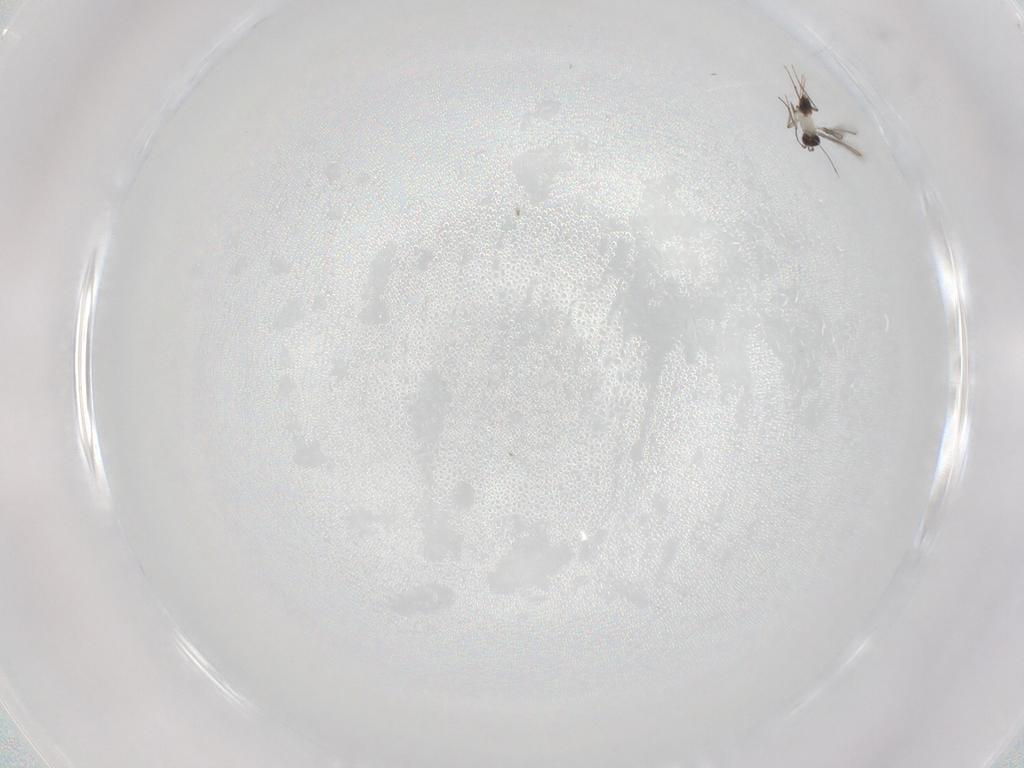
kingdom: Animalia
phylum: Arthropoda
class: Insecta
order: Hymenoptera
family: Mymaridae
